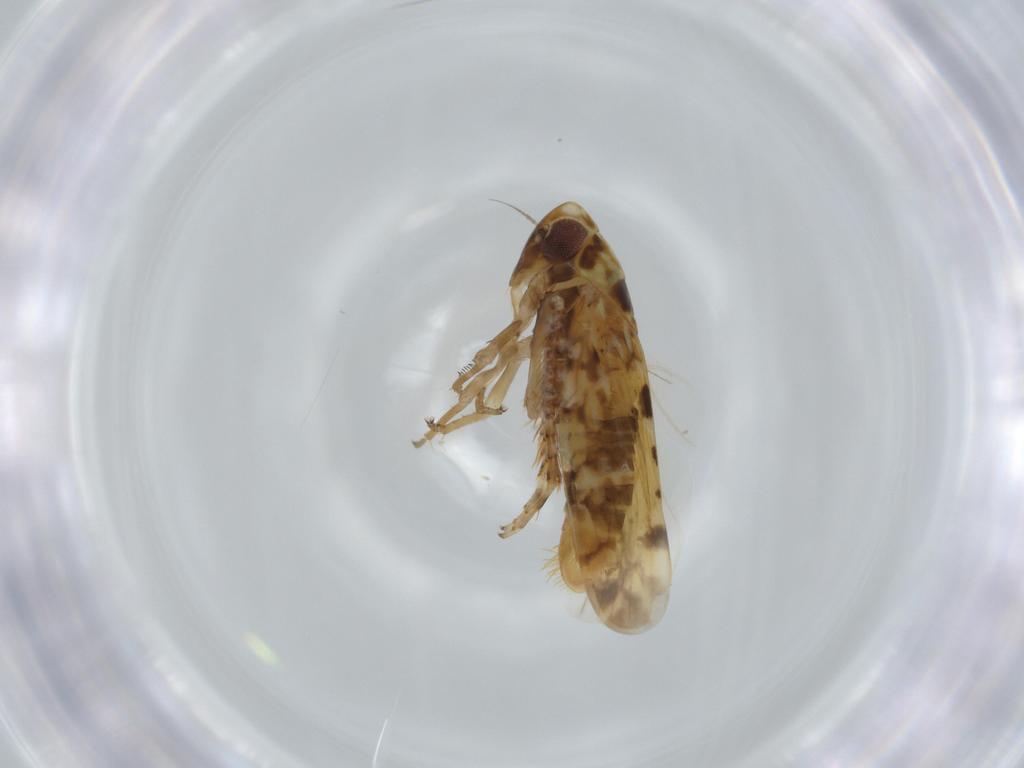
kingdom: Animalia
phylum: Arthropoda
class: Insecta
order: Hemiptera
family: Cicadellidae
